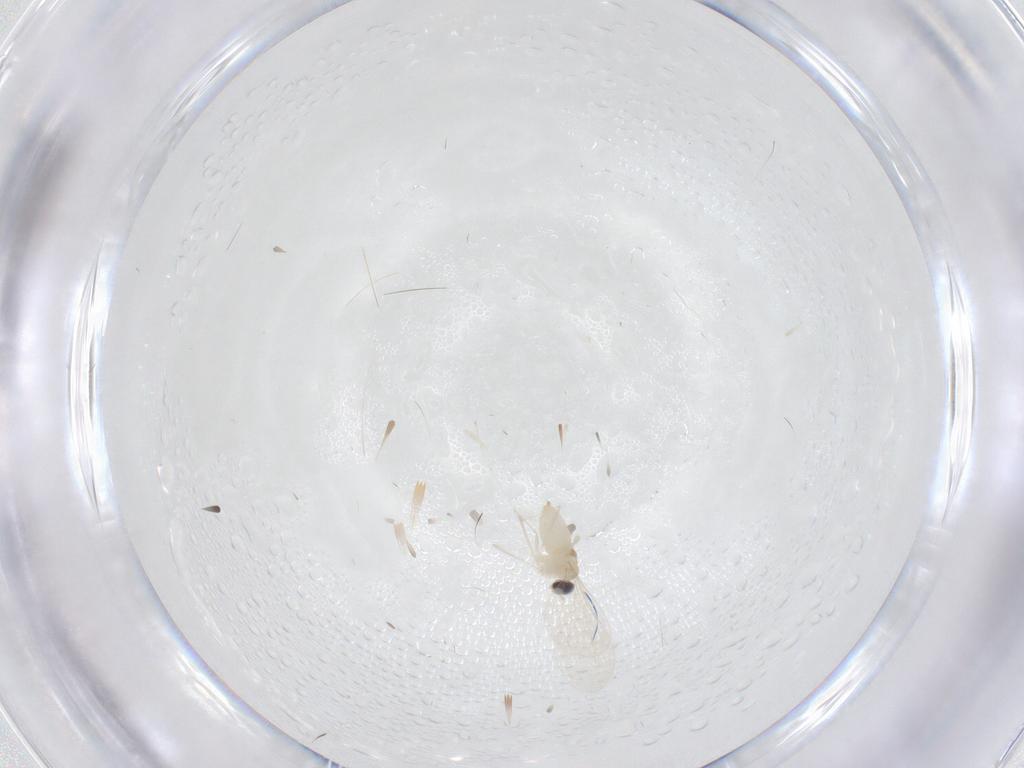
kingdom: Animalia
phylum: Arthropoda
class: Insecta
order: Diptera
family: Cecidomyiidae
